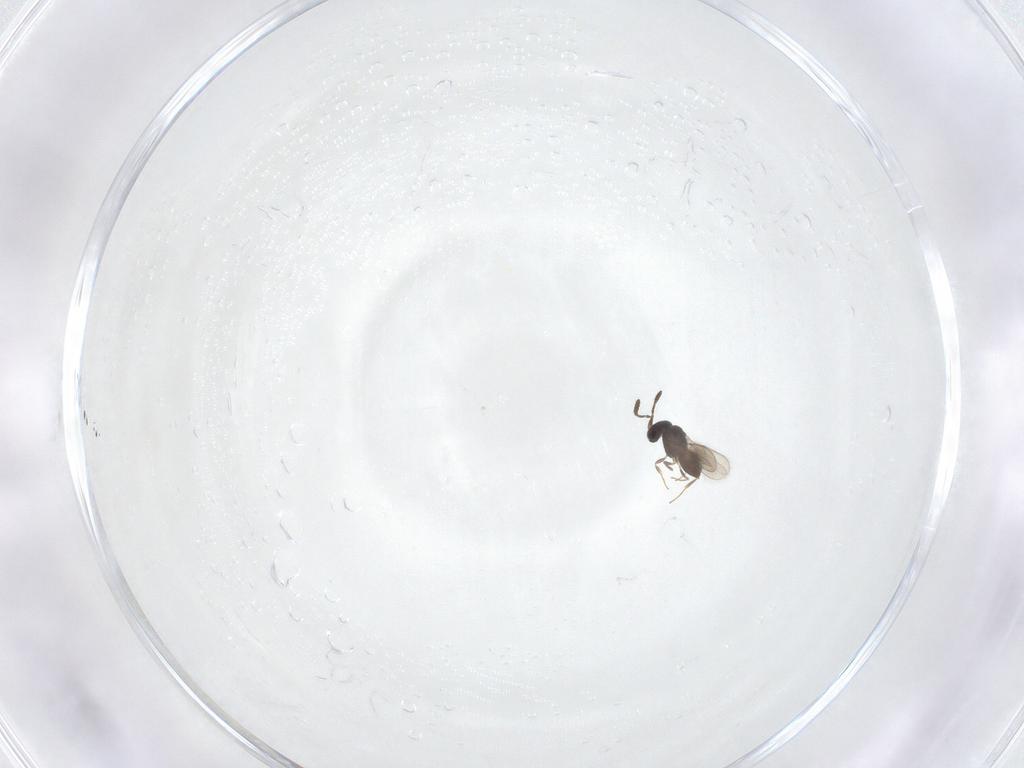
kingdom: Animalia
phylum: Arthropoda
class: Insecta
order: Hymenoptera
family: Scelionidae
